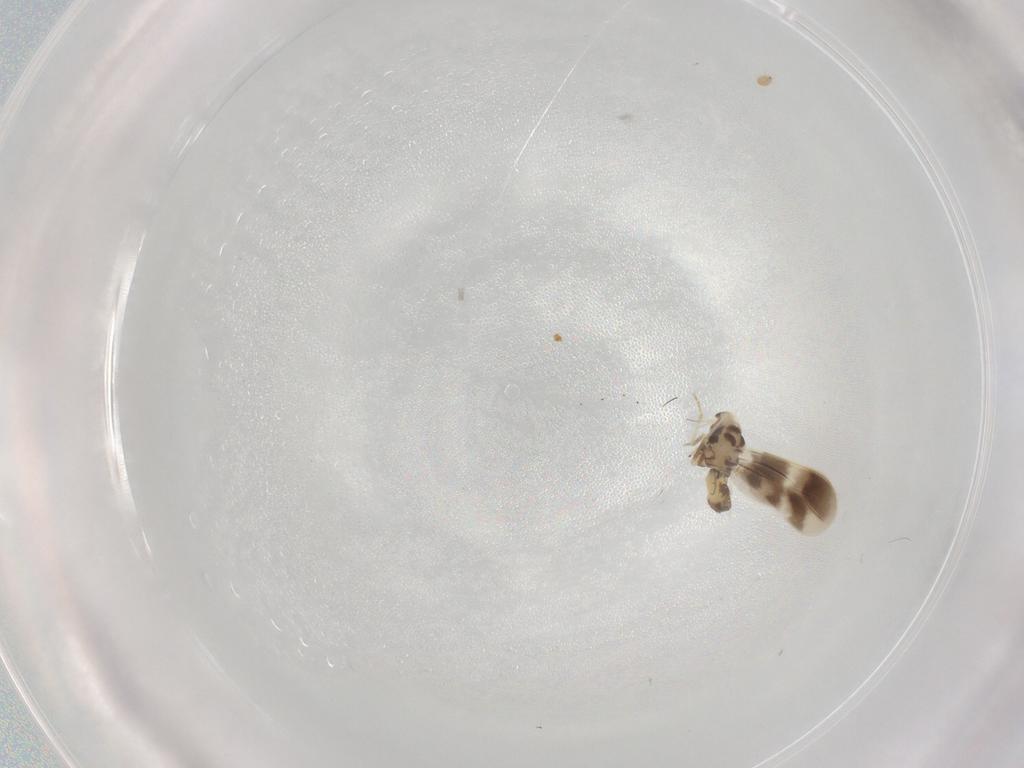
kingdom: Animalia
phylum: Arthropoda
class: Insecta
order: Hemiptera
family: Aleyrodidae
